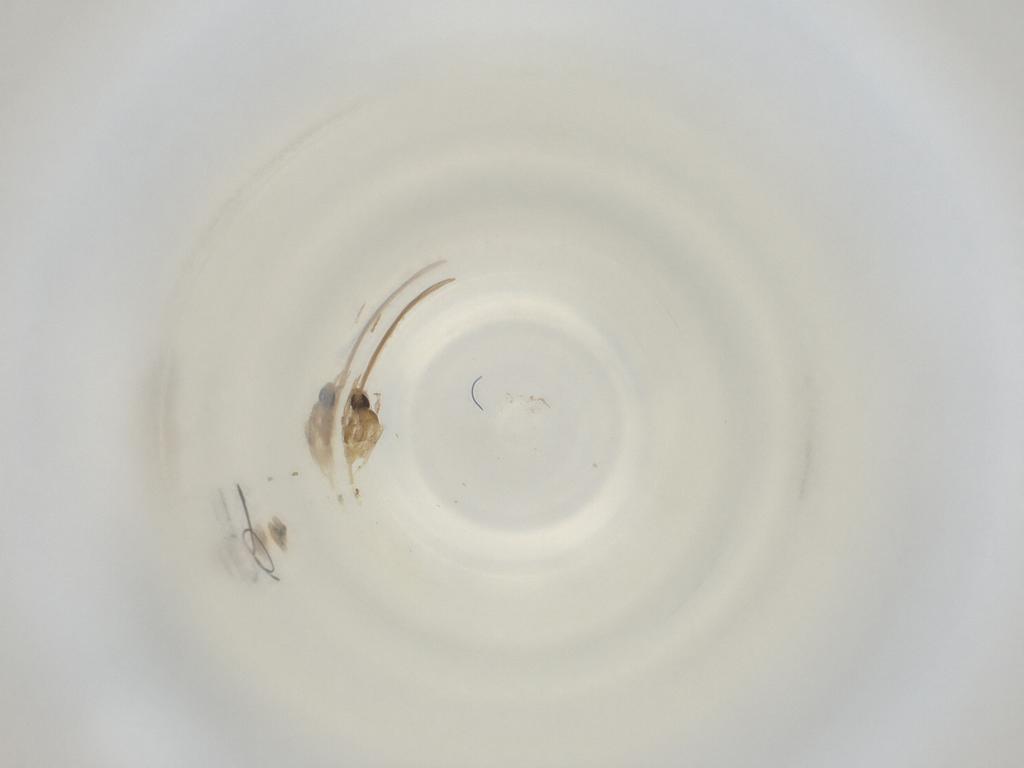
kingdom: Animalia
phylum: Arthropoda
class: Insecta
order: Diptera
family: Cecidomyiidae
